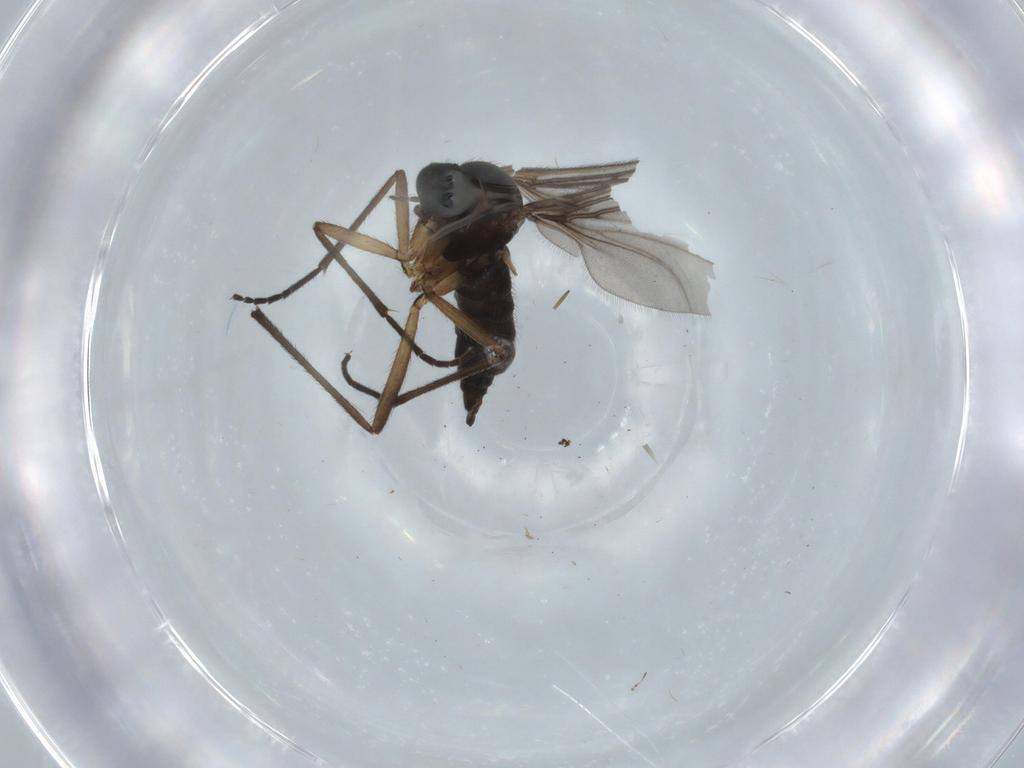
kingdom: Animalia
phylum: Arthropoda
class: Insecta
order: Diptera
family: Sciaridae
